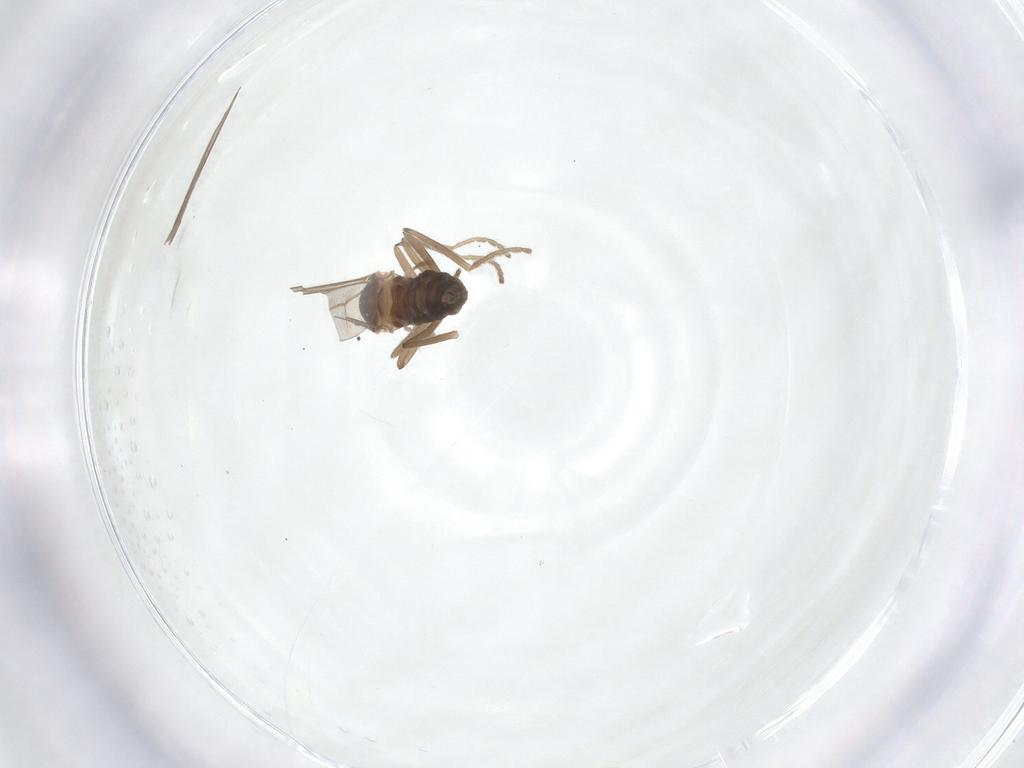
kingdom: Animalia
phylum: Arthropoda
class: Insecta
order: Diptera
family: Cecidomyiidae
